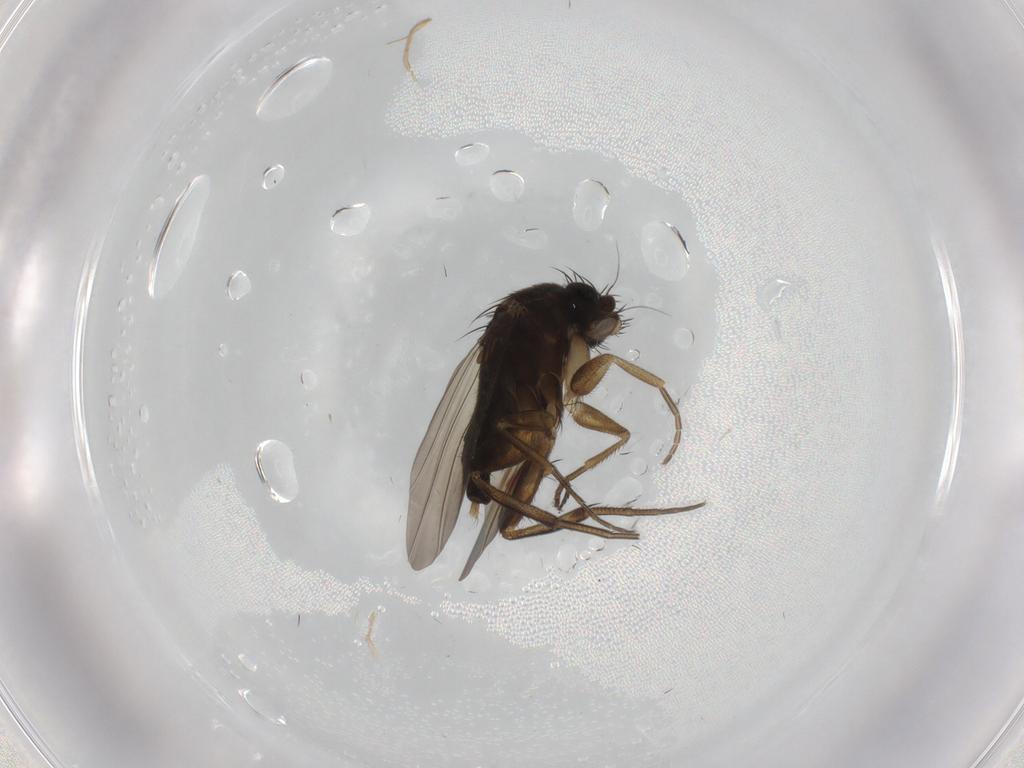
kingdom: Animalia
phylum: Arthropoda
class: Insecta
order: Diptera
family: Phoridae
